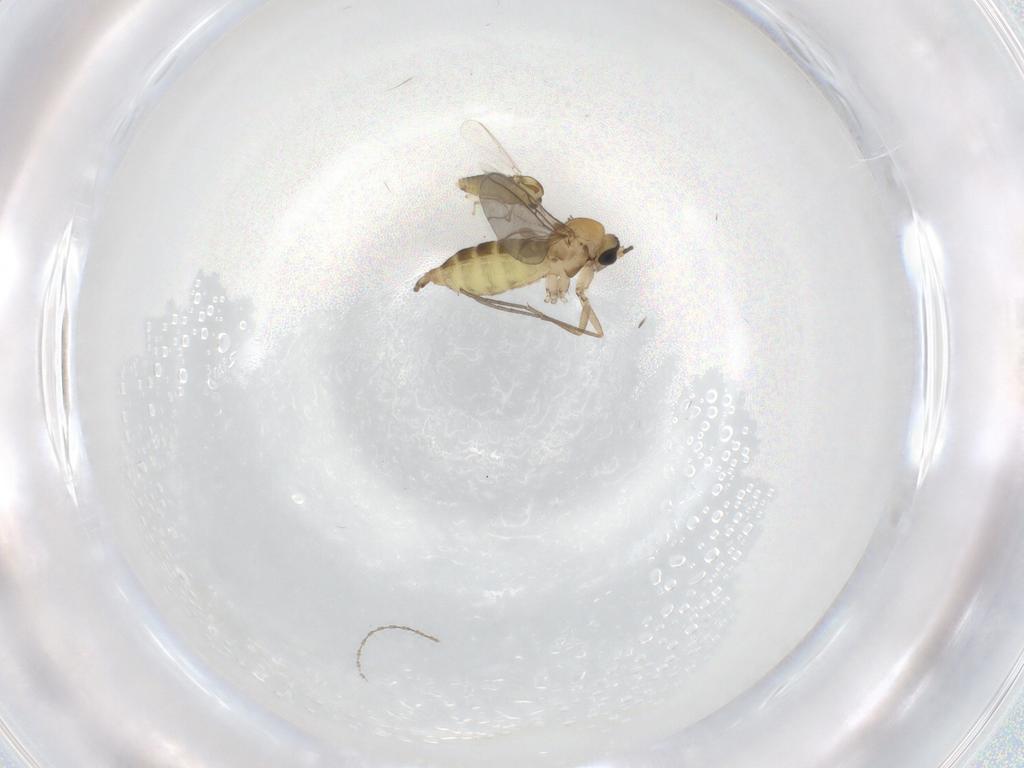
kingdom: Animalia
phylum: Arthropoda
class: Insecta
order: Diptera
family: Sciaridae
